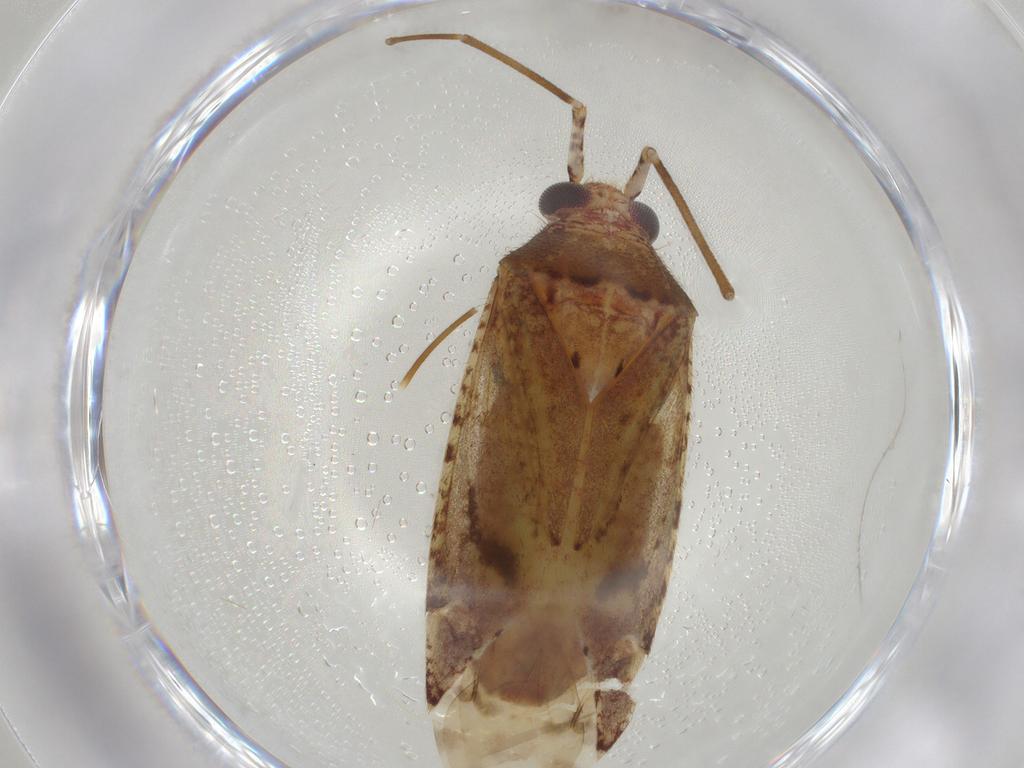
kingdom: Animalia
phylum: Arthropoda
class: Insecta
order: Hemiptera
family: Miridae
